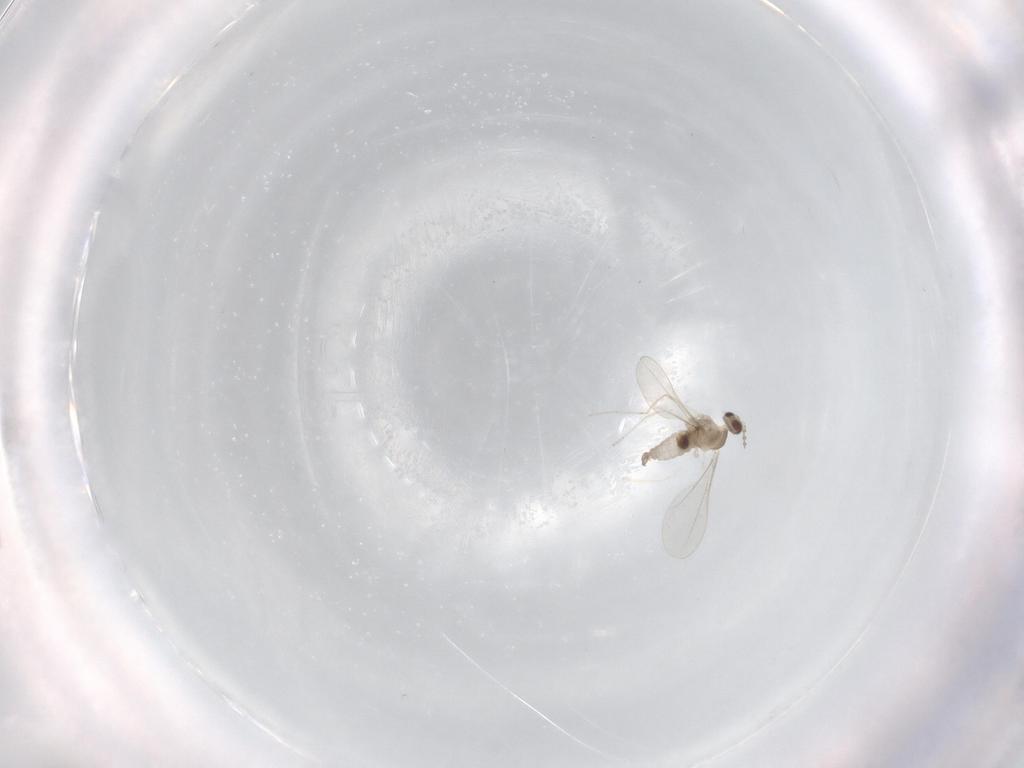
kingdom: Animalia
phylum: Arthropoda
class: Insecta
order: Diptera
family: Cecidomyiidae
